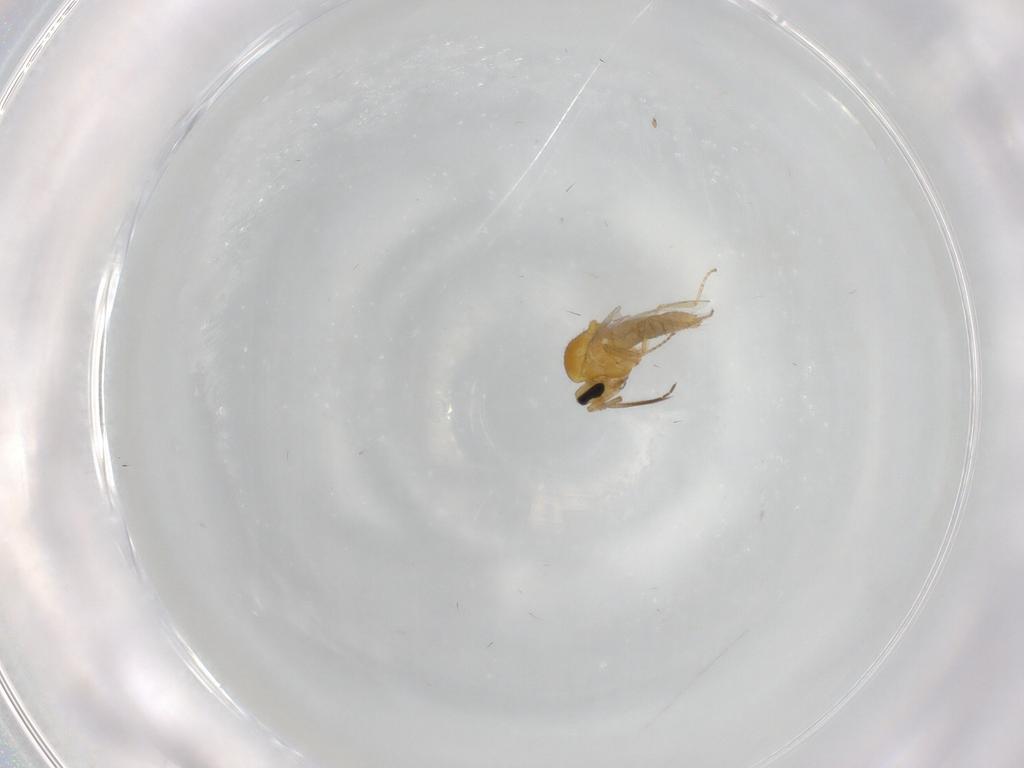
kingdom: Animalia
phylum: Arthropoda
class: Insecta
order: Diptera
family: Ceratopogonidae
